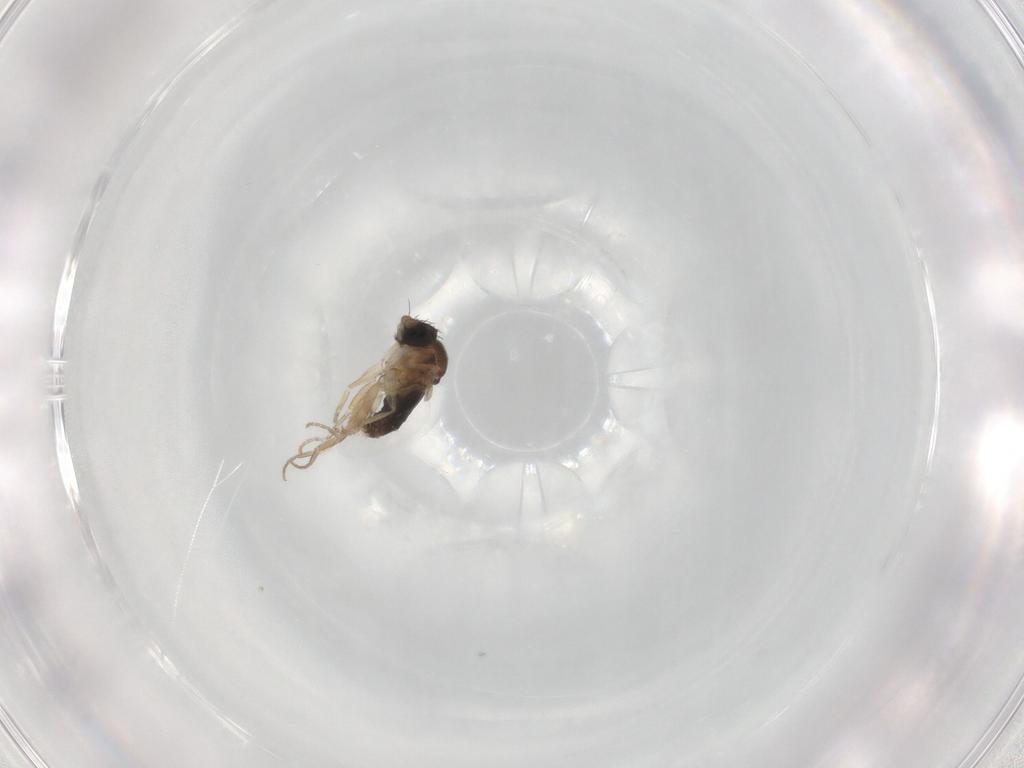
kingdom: Animalia
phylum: Arthropoda
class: Insecta
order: Diptera
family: Phoridae
